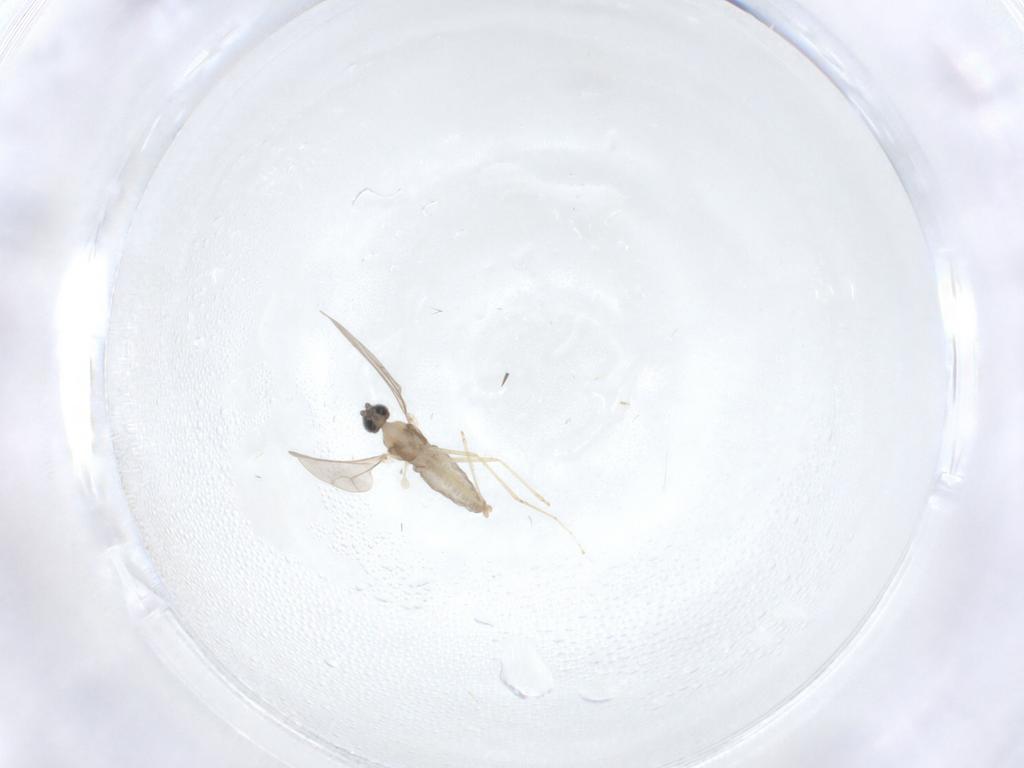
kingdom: Animalia
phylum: Arthropoda
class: Insecta
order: Diptera
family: Cecidomyiidae
